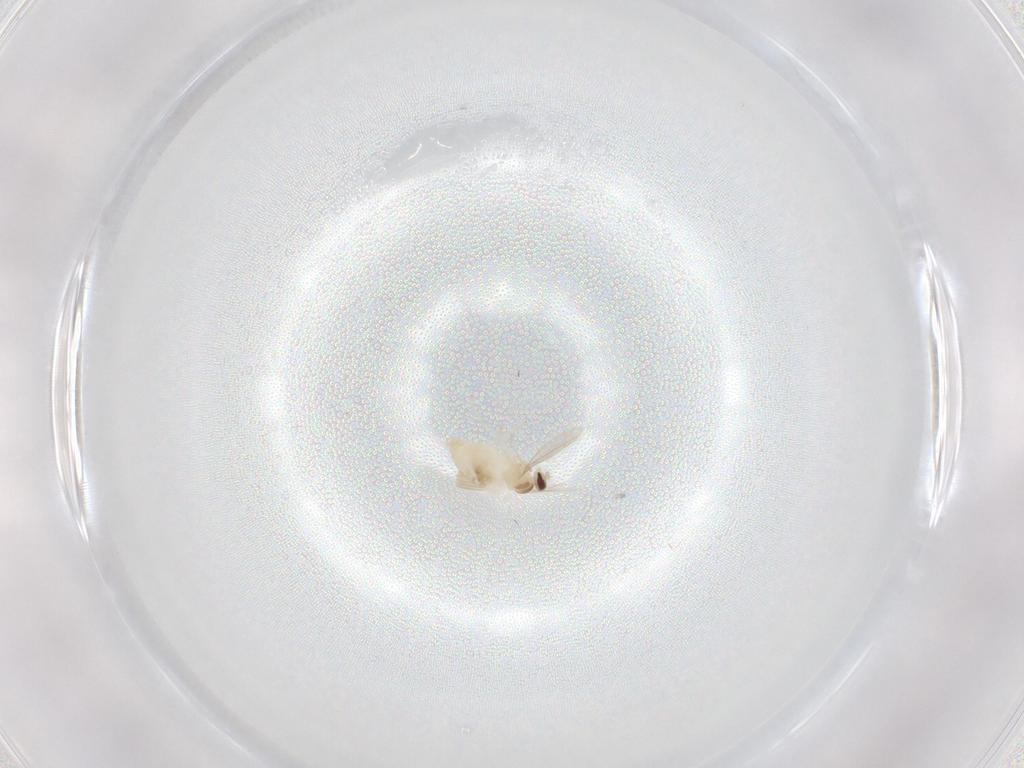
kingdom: Animalia
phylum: Arthropoda
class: Insecta
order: Diptera
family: Cecidomyiidae
